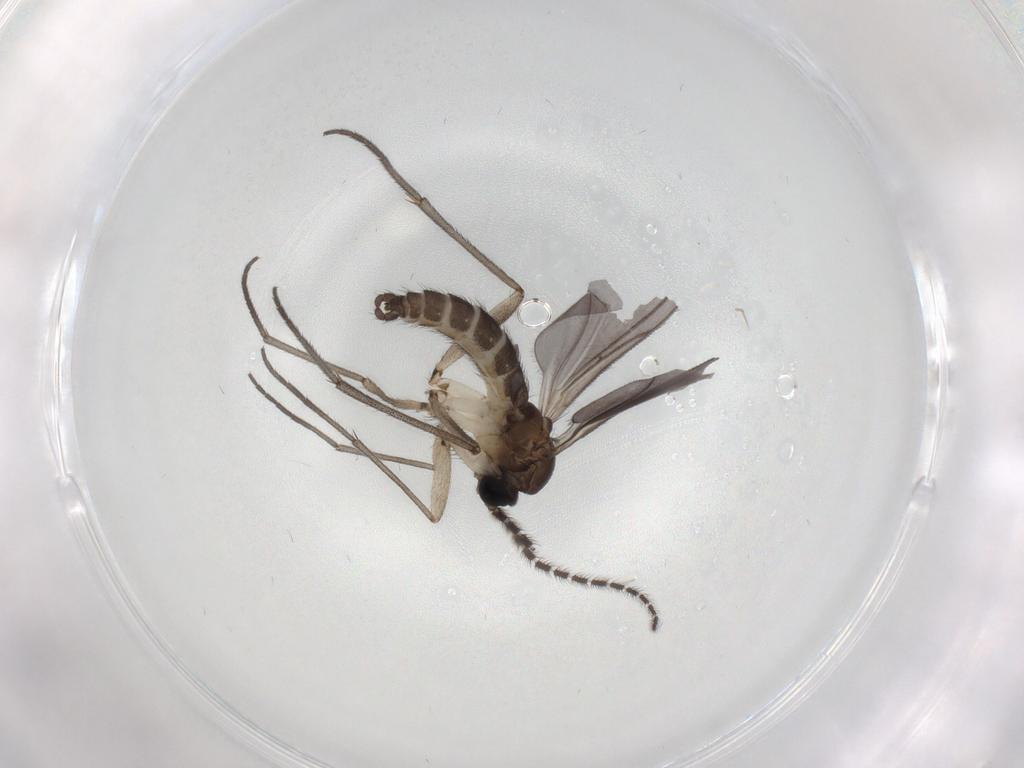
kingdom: Animalia
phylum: Arthropoda
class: Insecta
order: Diptera
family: Sciaridae
